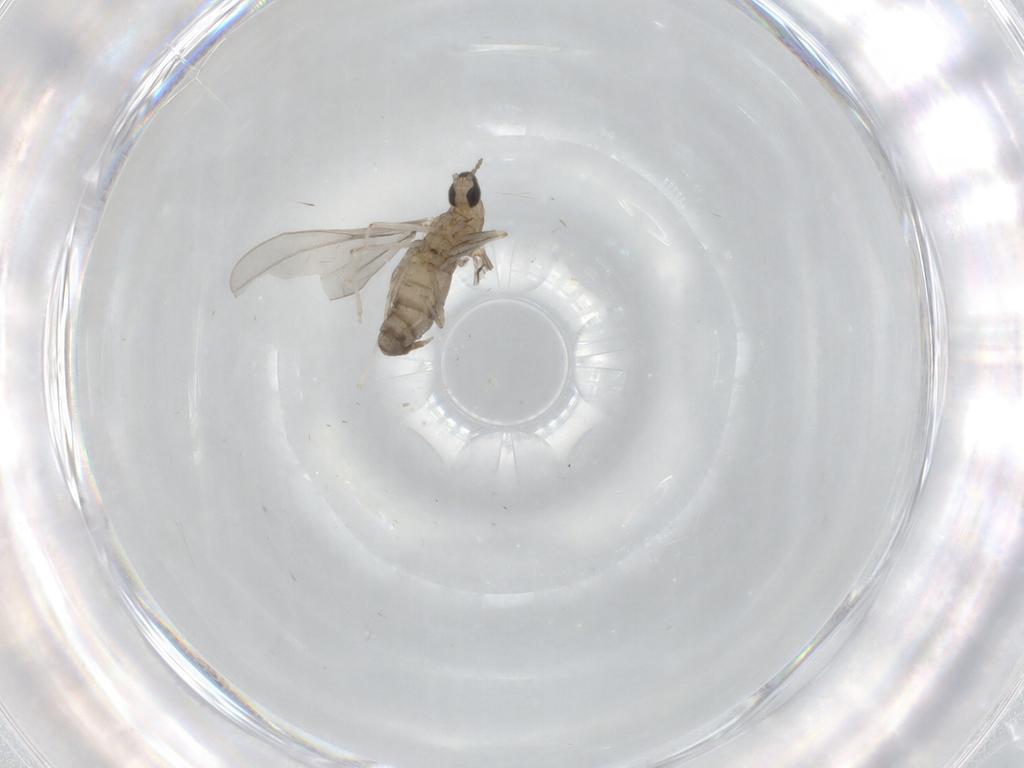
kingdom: Animalia
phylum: Arthropoda
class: Insecta
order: Diptera
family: Cecidomyiidae
